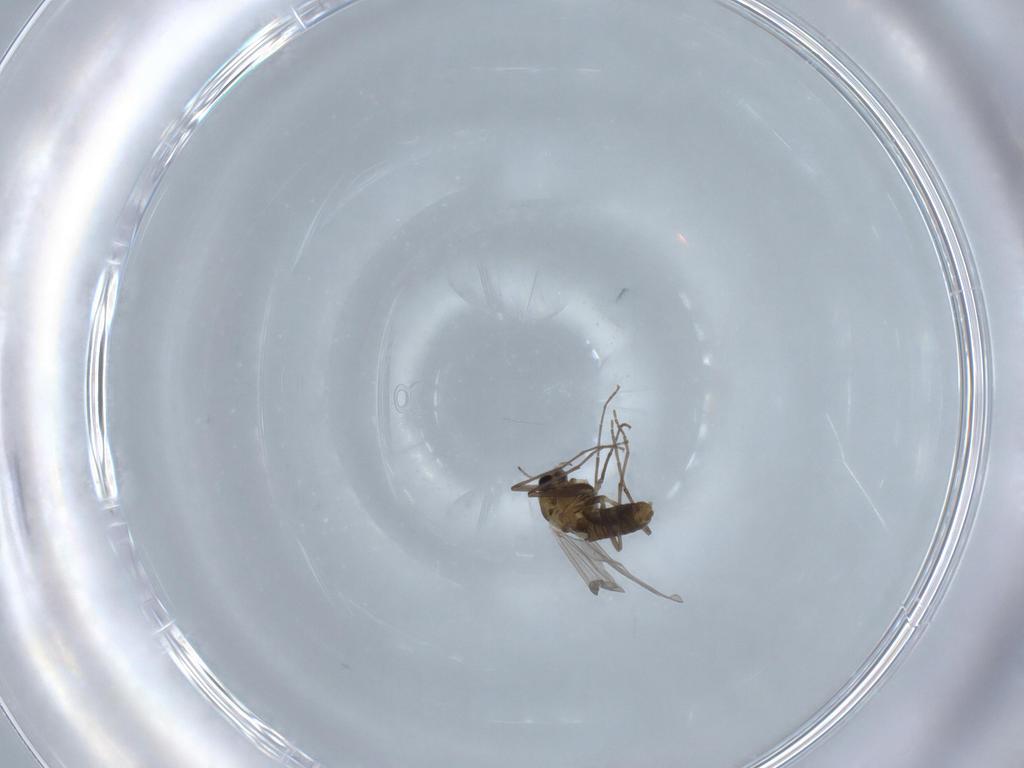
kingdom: Animalia
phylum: Arthropoda
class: Insecta
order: Diptera
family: Chironomidae
